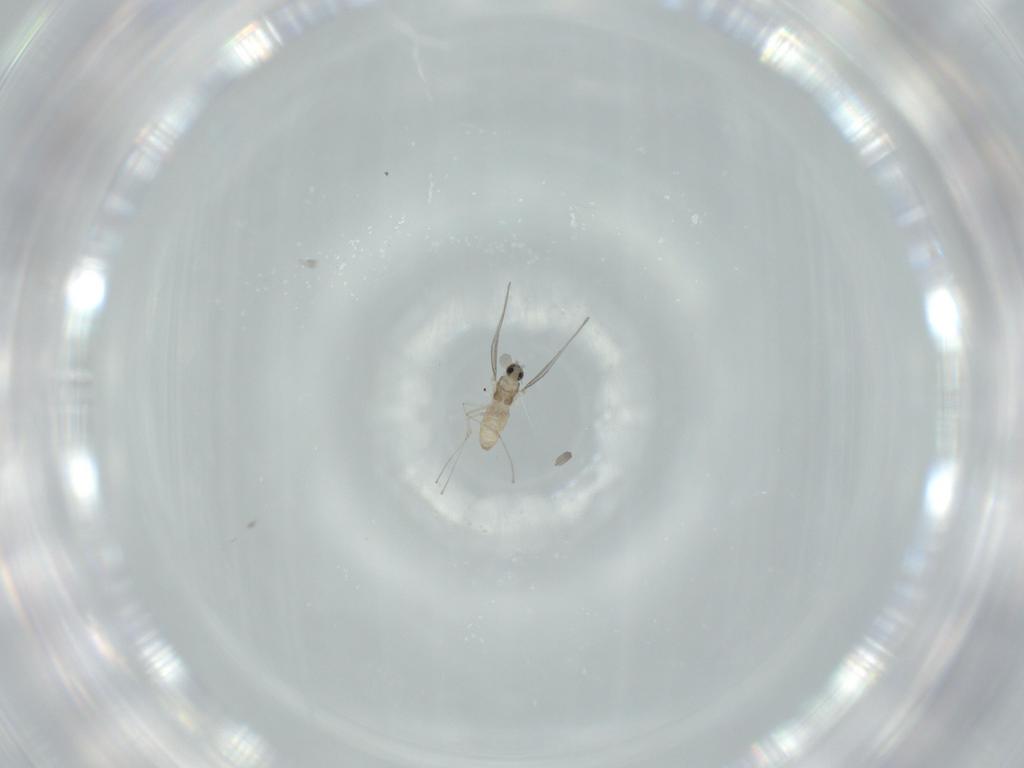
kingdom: Animalia
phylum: Arthropoda
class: Insecta
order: Diptera
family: Cecidomyiidae
